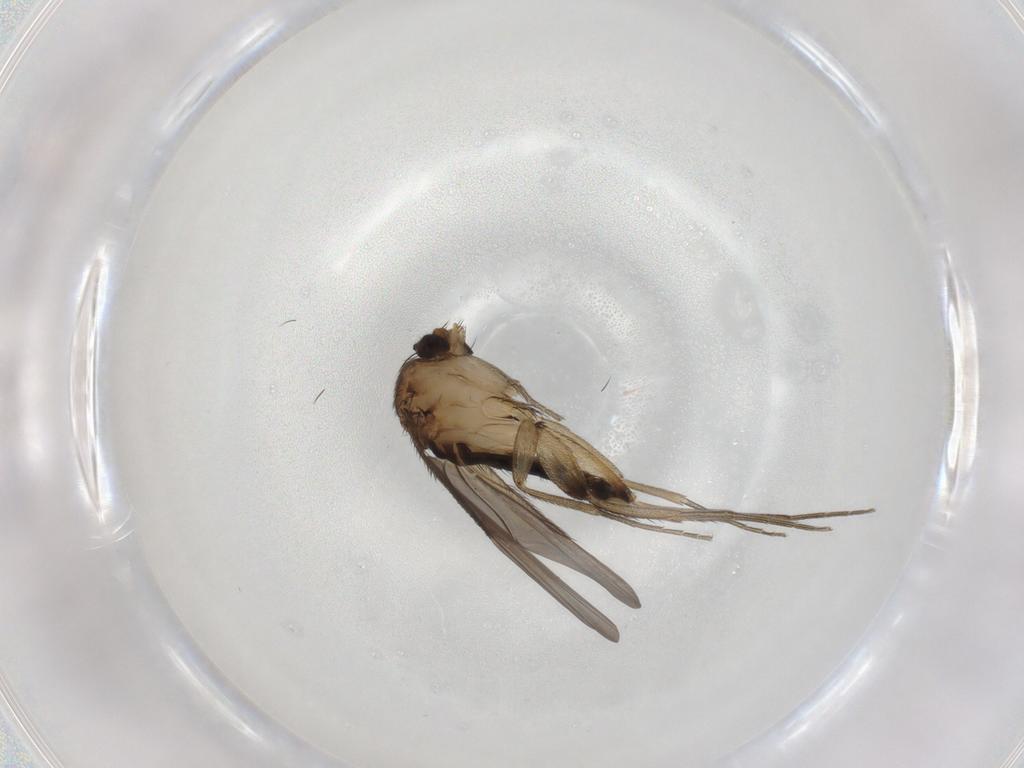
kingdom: Animalia
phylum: Arthropoda
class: Insecta
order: Diptera
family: Phoridae
